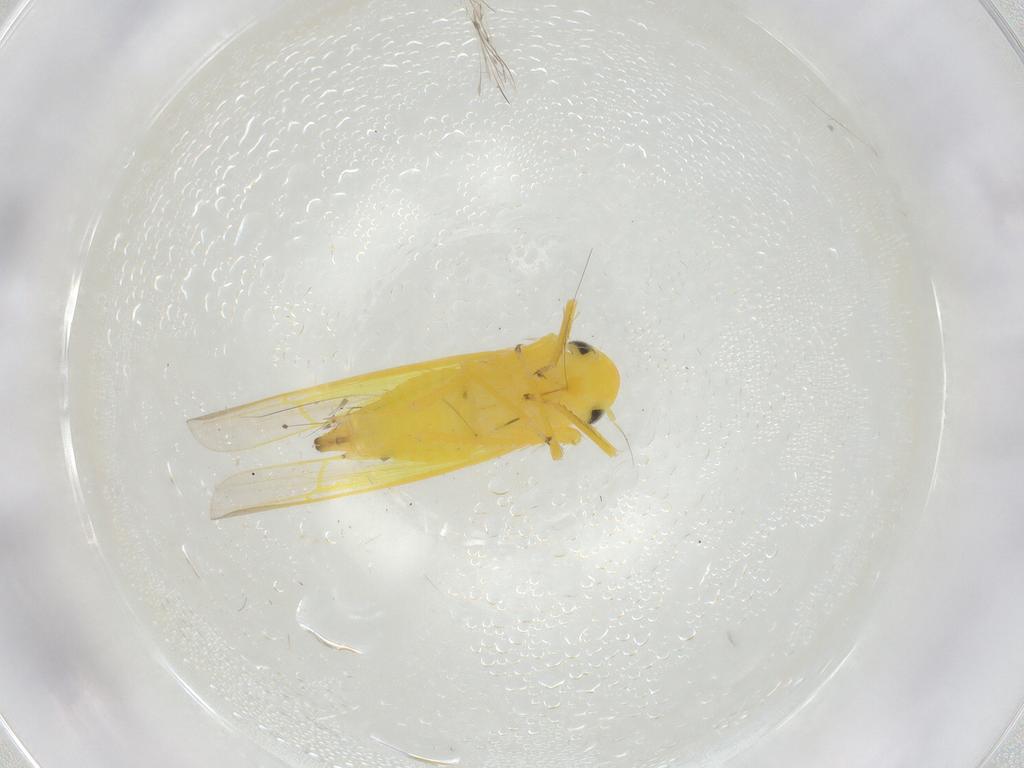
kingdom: Animalia
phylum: Arthropoda
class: Insecta
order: Hemiptera
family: Cicadellidae
